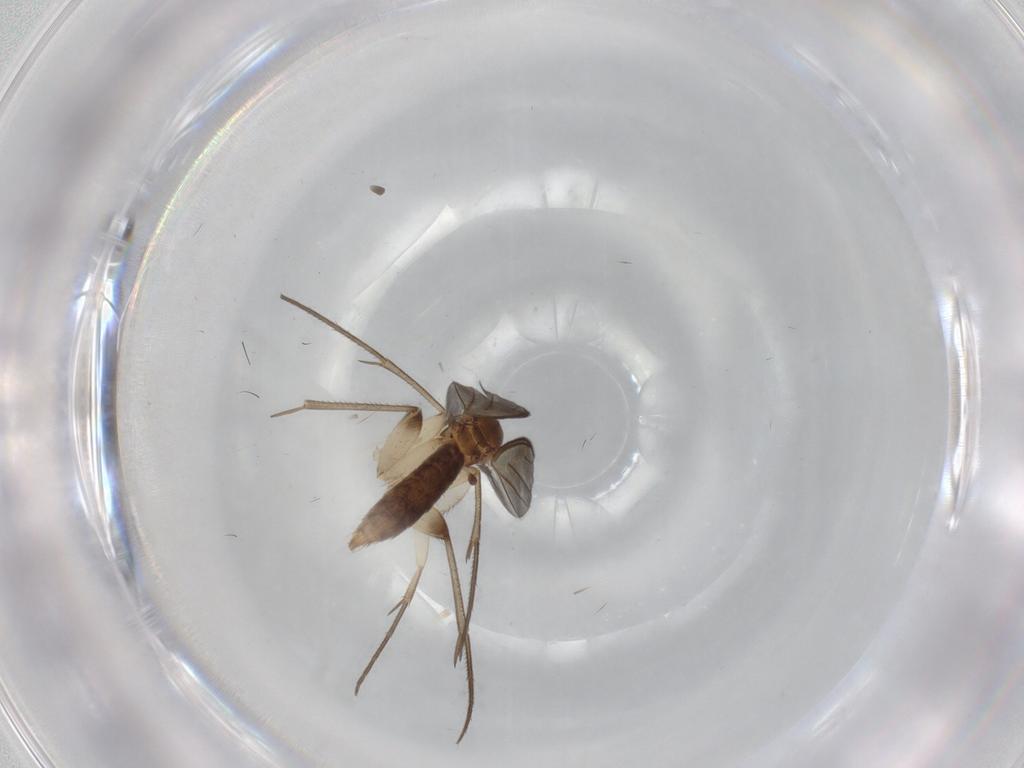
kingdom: Animalia
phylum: Arthropoda
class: Insecta
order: Diptera
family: Mycetophilidae
